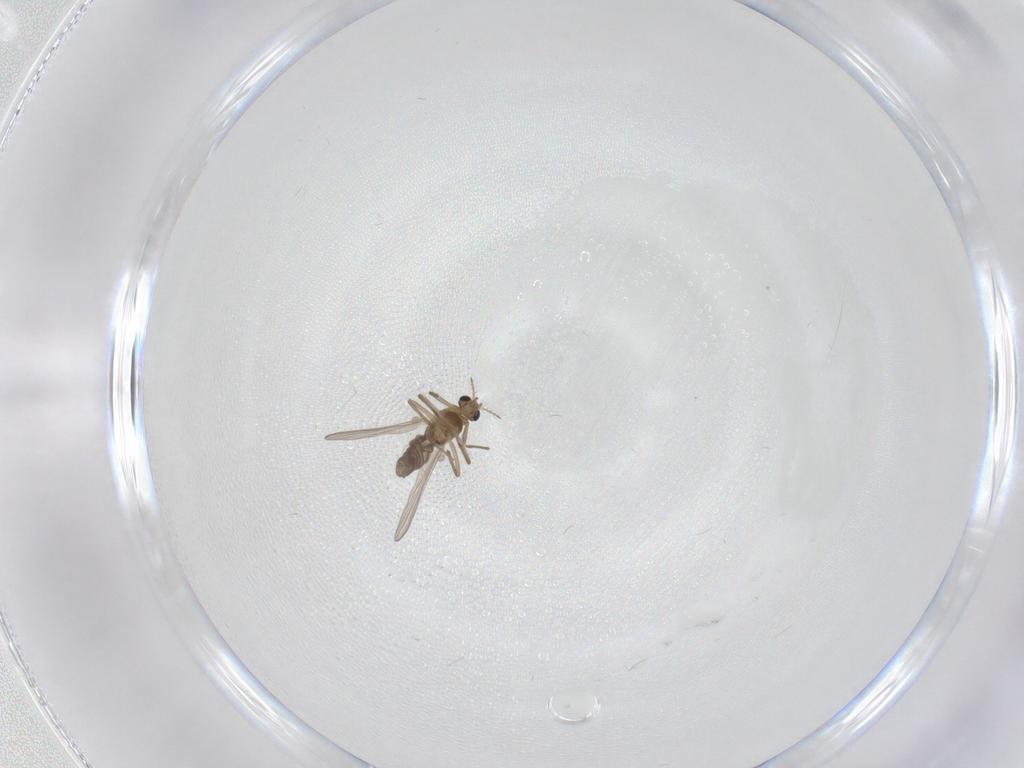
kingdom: Animalia
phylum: Arthropoda
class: Insecta
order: Diptera
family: Chironomidae
